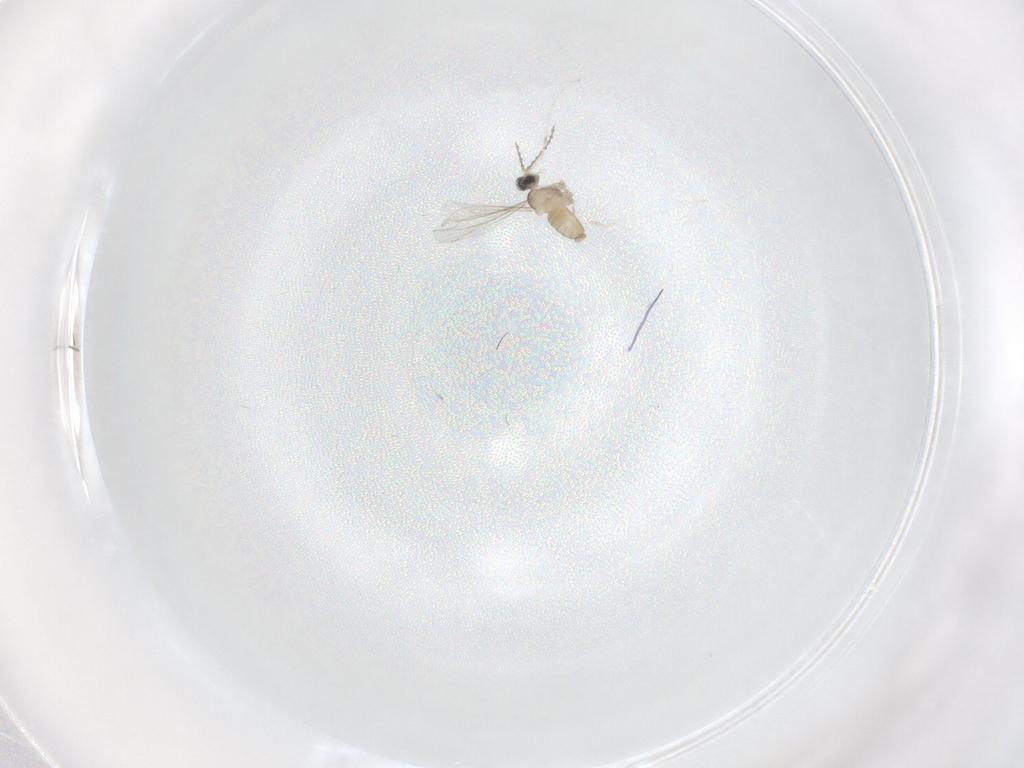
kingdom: Animalia
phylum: Arthropoda
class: Insecta
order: Diptera
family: Cecidomyiidae
